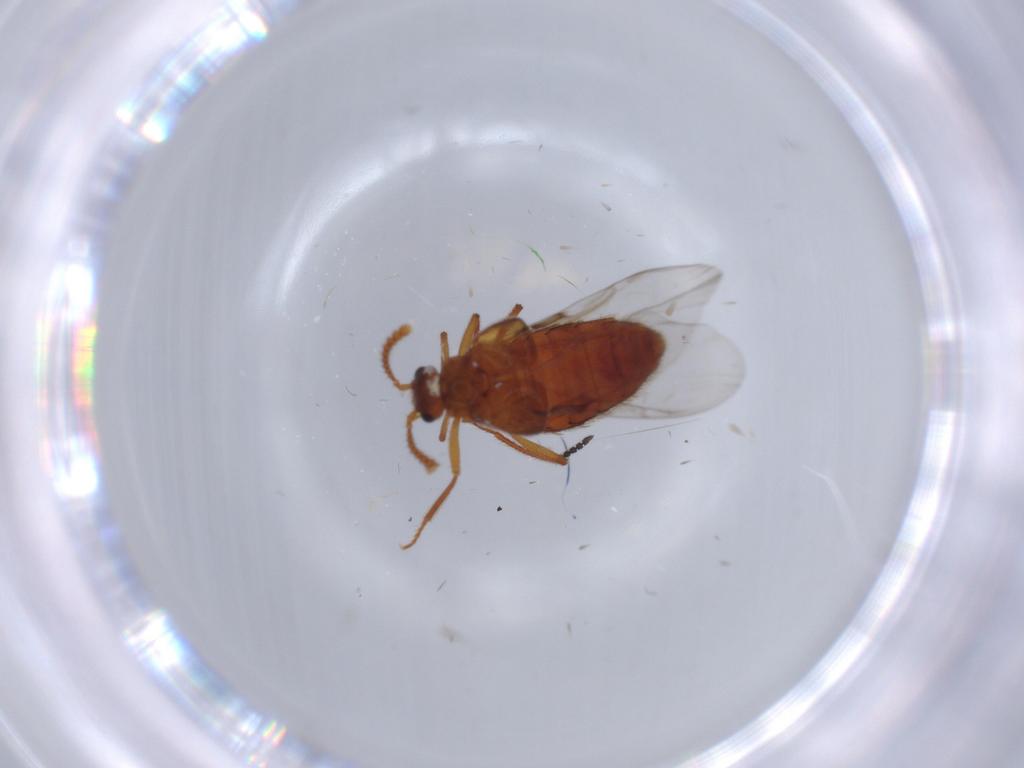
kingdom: Animalia
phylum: Arthropoda
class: Insecta
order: Coleoptera
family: Staphylinidae
